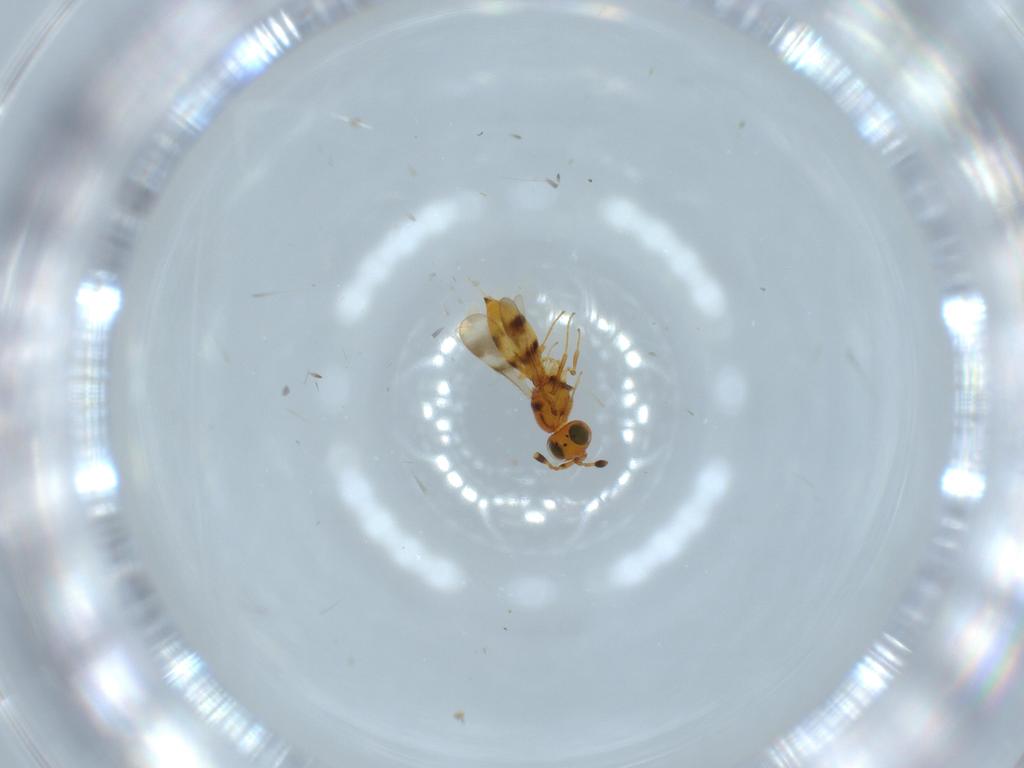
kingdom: Animalia
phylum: Arthropoda
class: Insecta
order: Hymenoptera
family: Scelionidae
